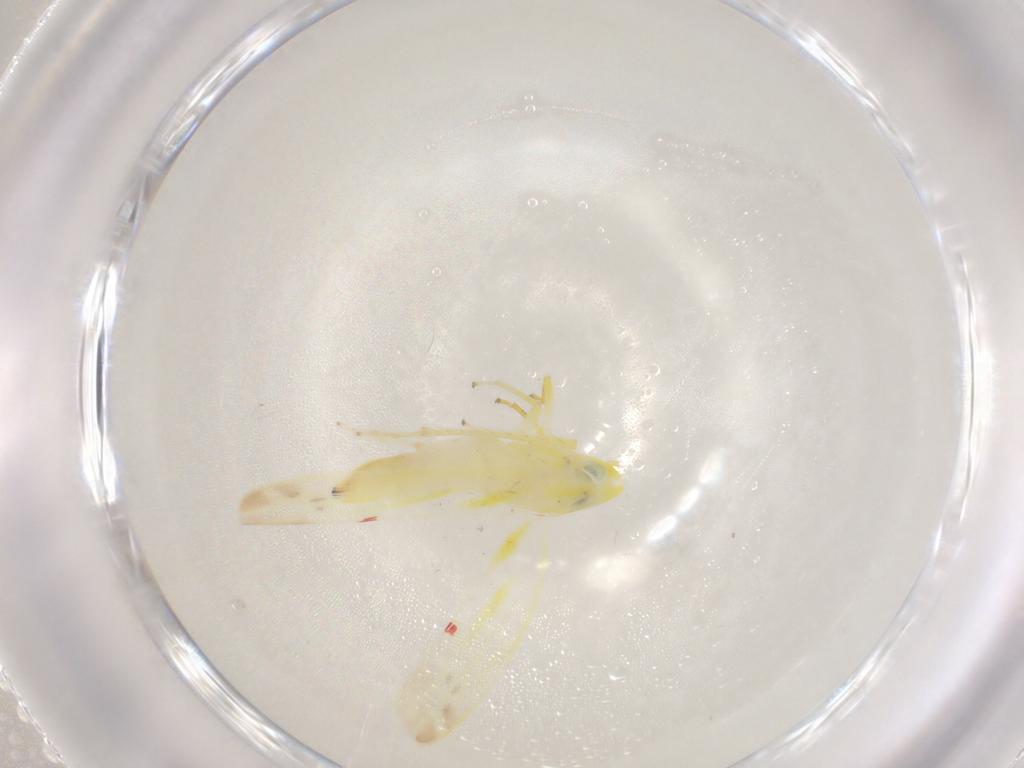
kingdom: Animalia
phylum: Arthropoda
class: Insecta
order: Hemiptera
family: Cicadellidae
